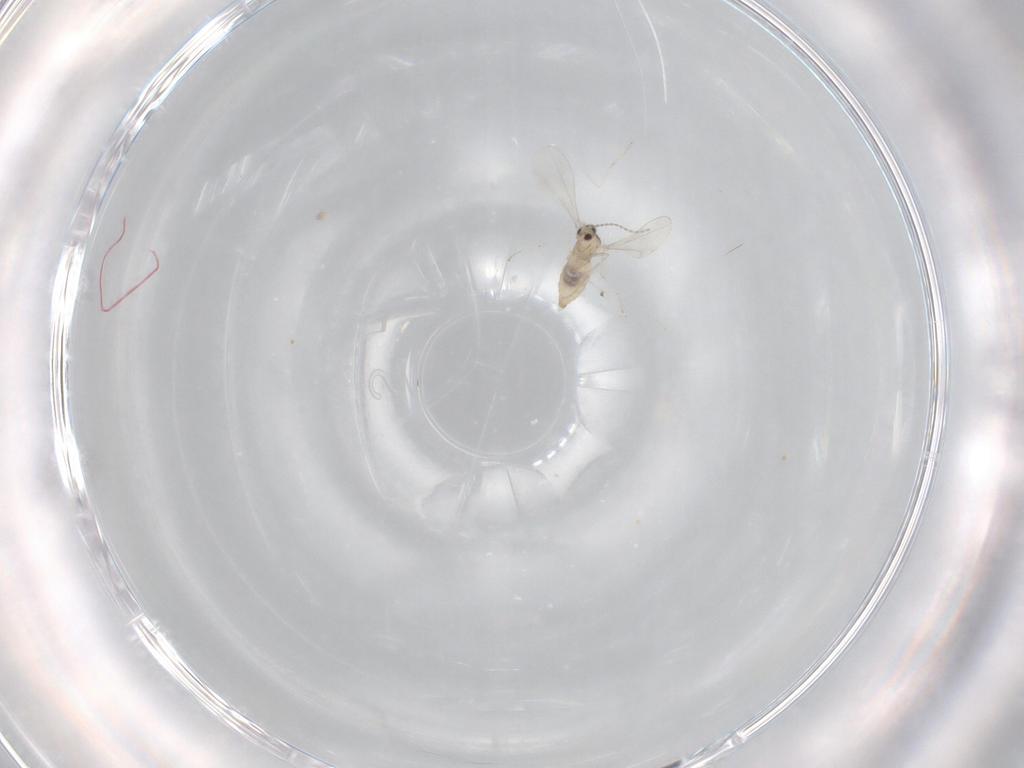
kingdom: Animalia
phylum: Arthropoda
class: Insecta
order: Diptera
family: Cecidomyiidae
